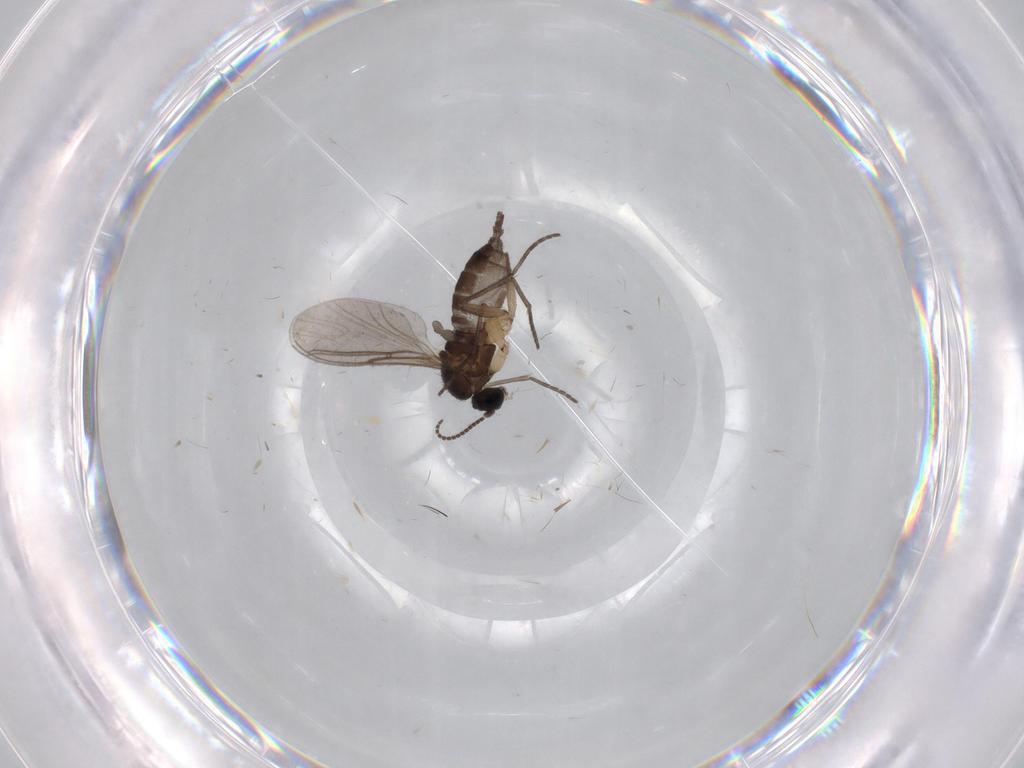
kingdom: Animalia
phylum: Arthropoda
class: Insecta
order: Diptera
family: Sciaridae
